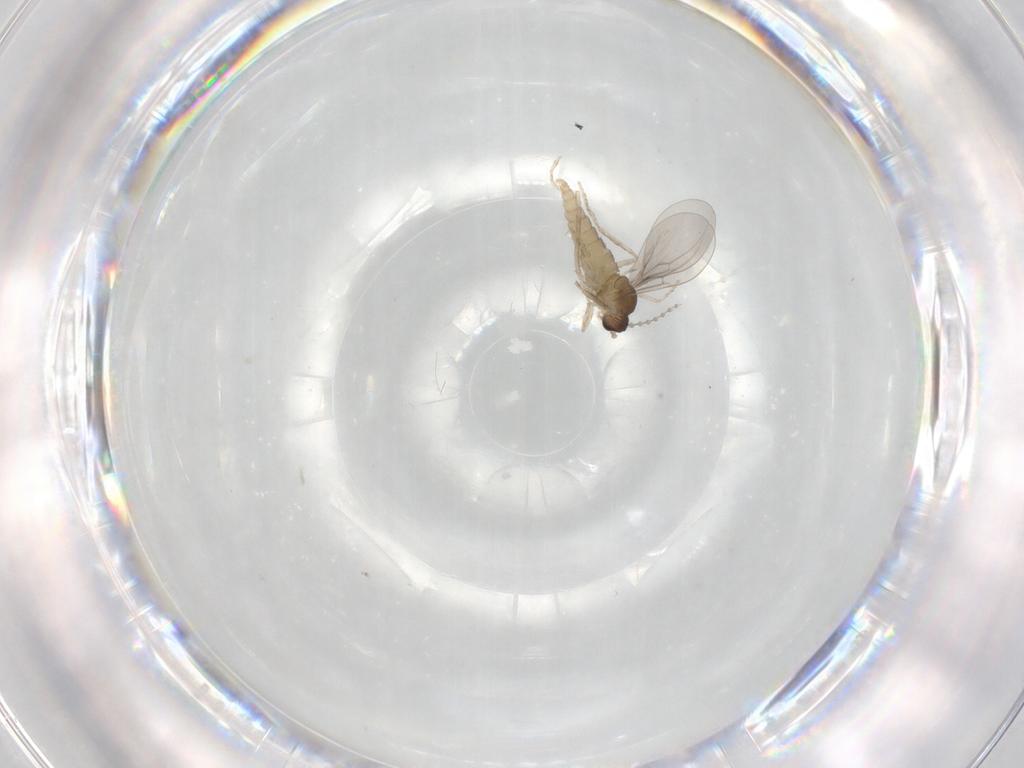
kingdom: Animalia
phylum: Arthropoda
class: Insecta
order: Diptera
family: Cecidomyiidae
